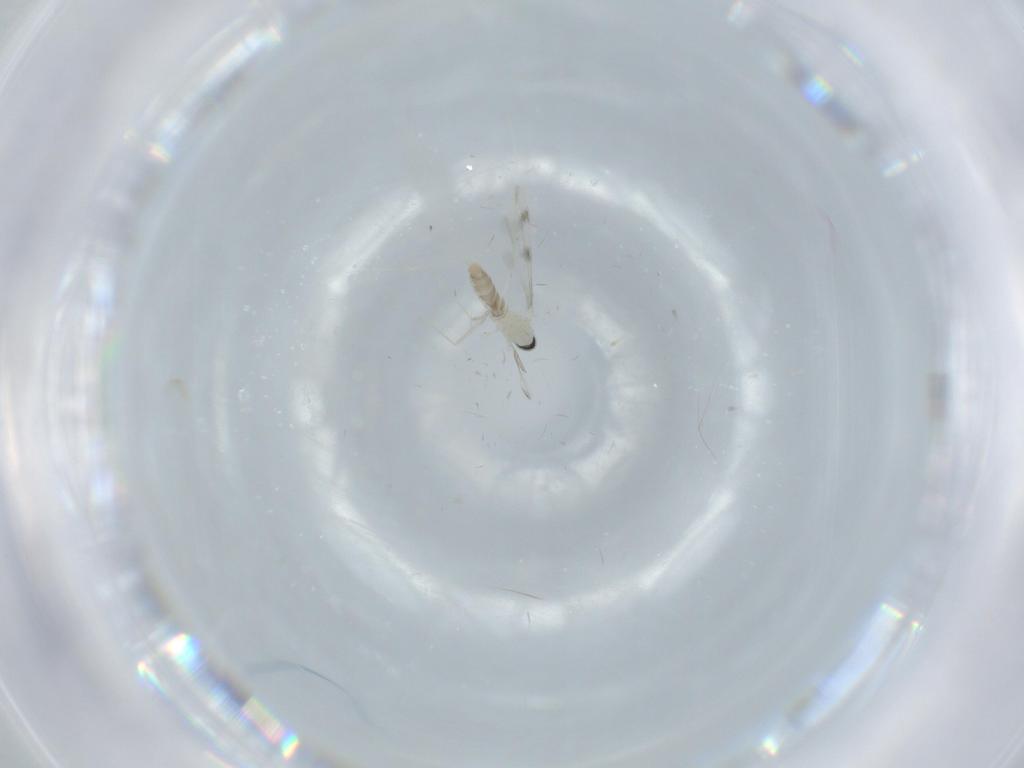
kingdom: Animalia
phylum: Arthropoda
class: Insecta
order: Diptera
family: Cecidomyiidae
